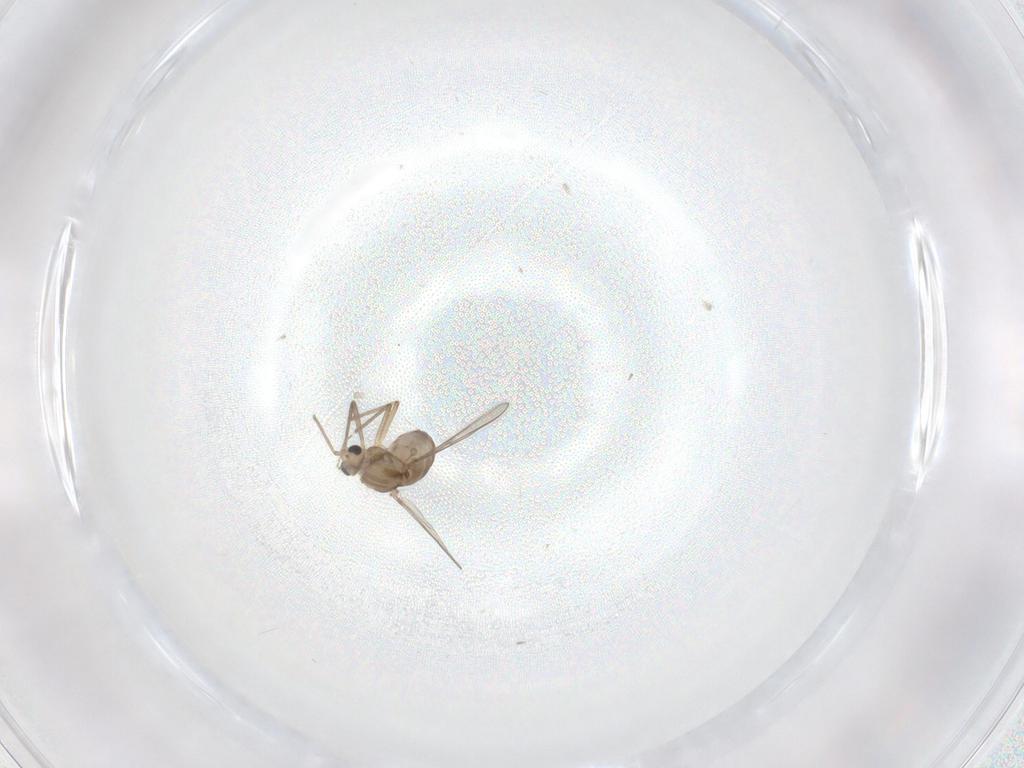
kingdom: Animalia
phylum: Arthropoda
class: Insecta
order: Diptera
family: Chironomidae
